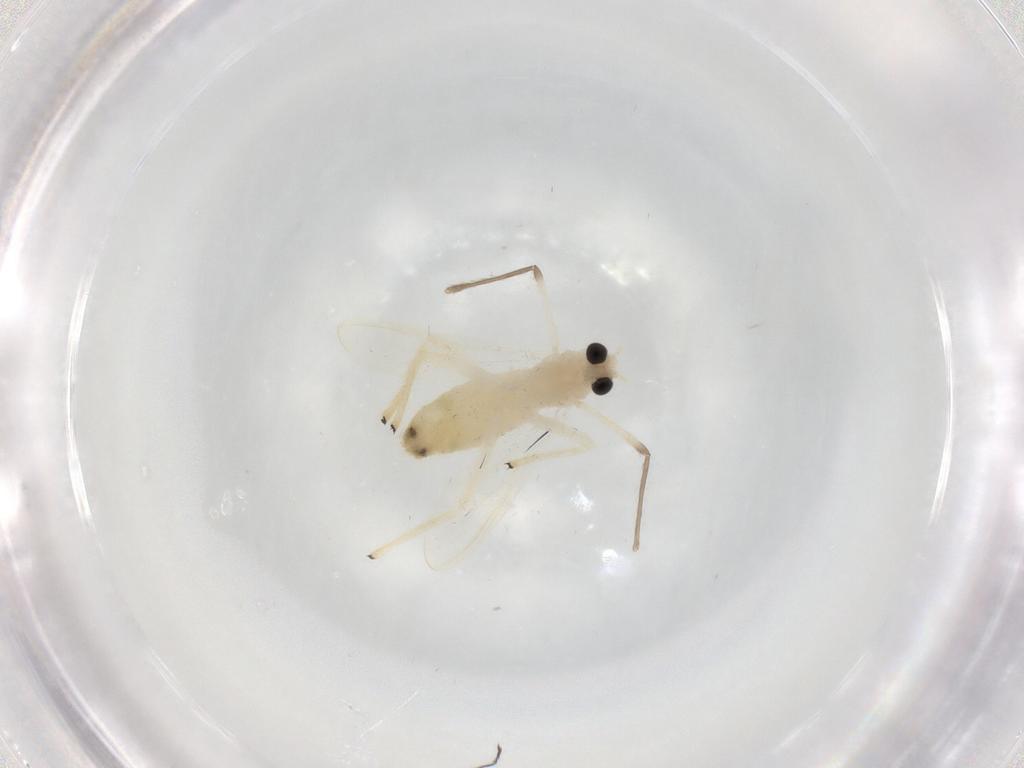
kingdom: Animalia
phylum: Arthropoda
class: Insecta
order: Diptera
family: Chironomidae
